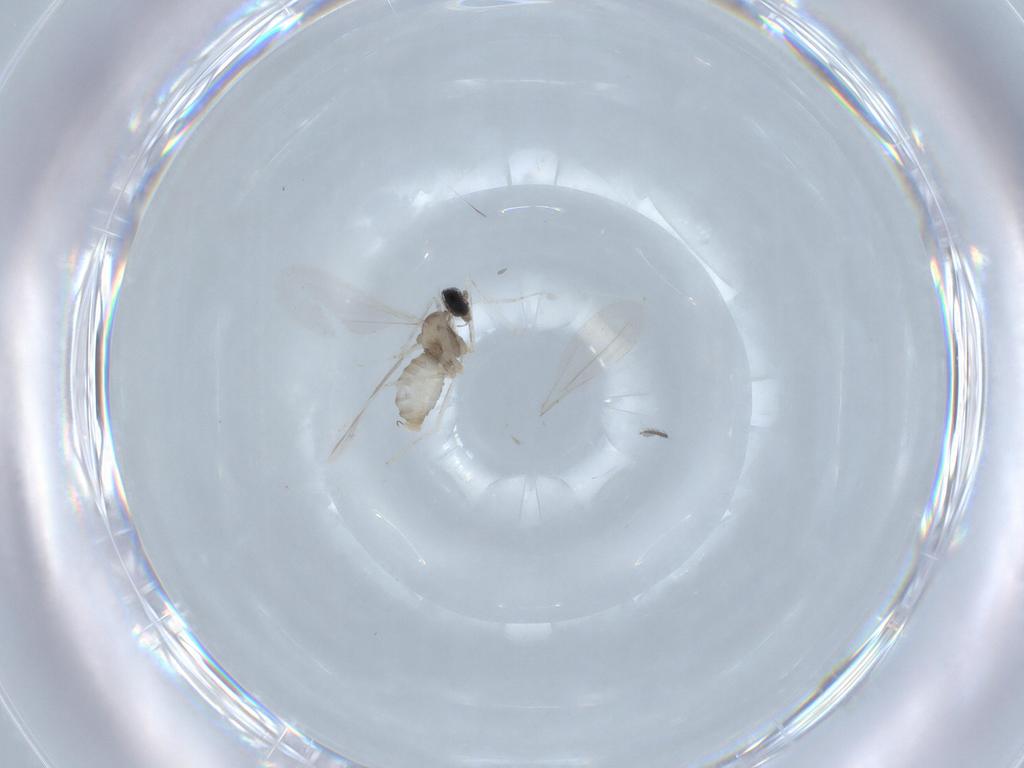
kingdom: Animalia
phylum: Arthropoda
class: Insecta
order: Diptera
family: Cecidomyiidae
